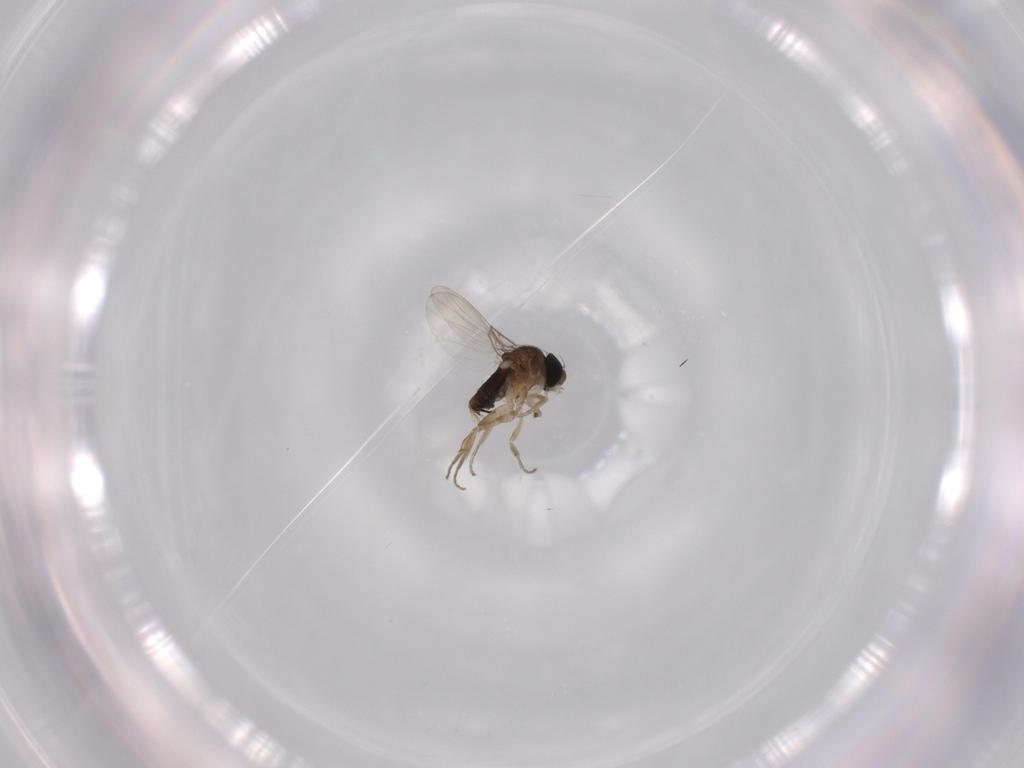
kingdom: Animalia
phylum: Arthropoda
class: Insecta
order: Diptera
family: Phoridae
